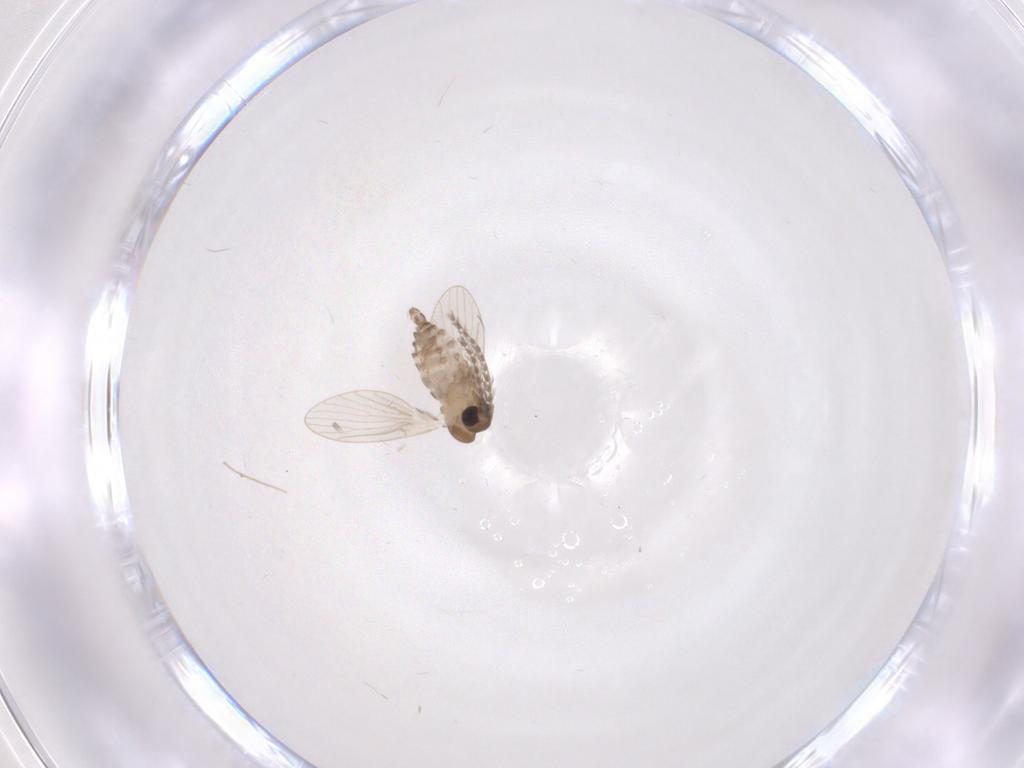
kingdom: Animalia
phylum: Arthropoda
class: Insecta
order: Diptera
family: Sciaridae
